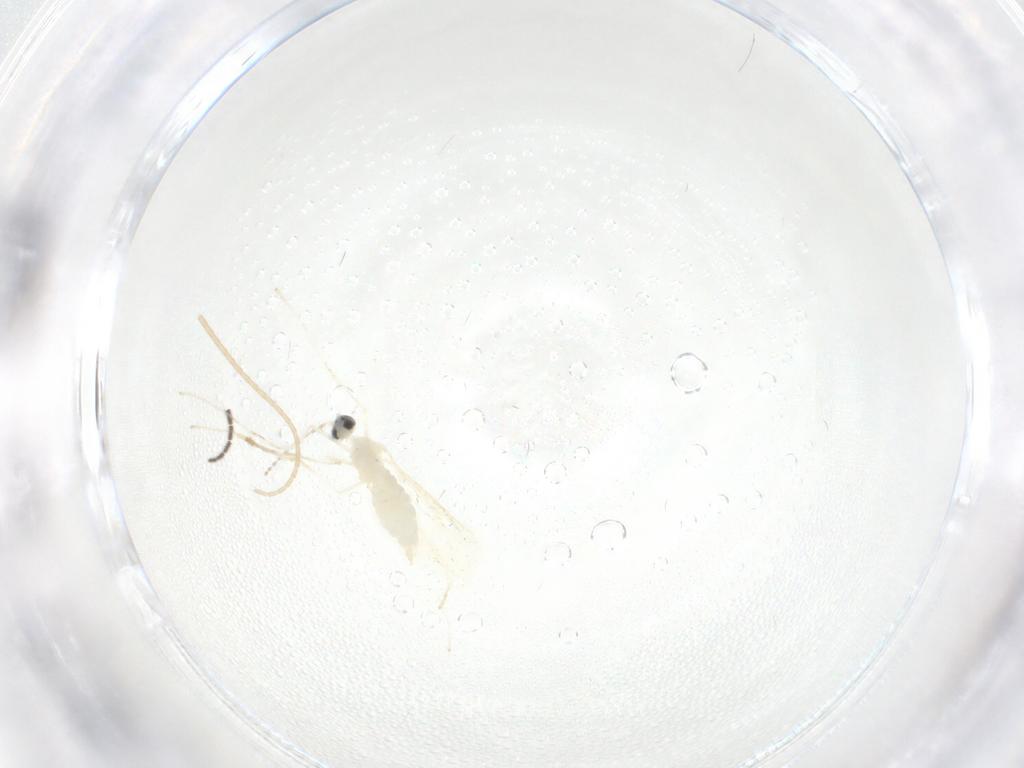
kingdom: Animalia
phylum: Arthropoda
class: Insecta
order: Diptera
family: Cecidomyiidae
